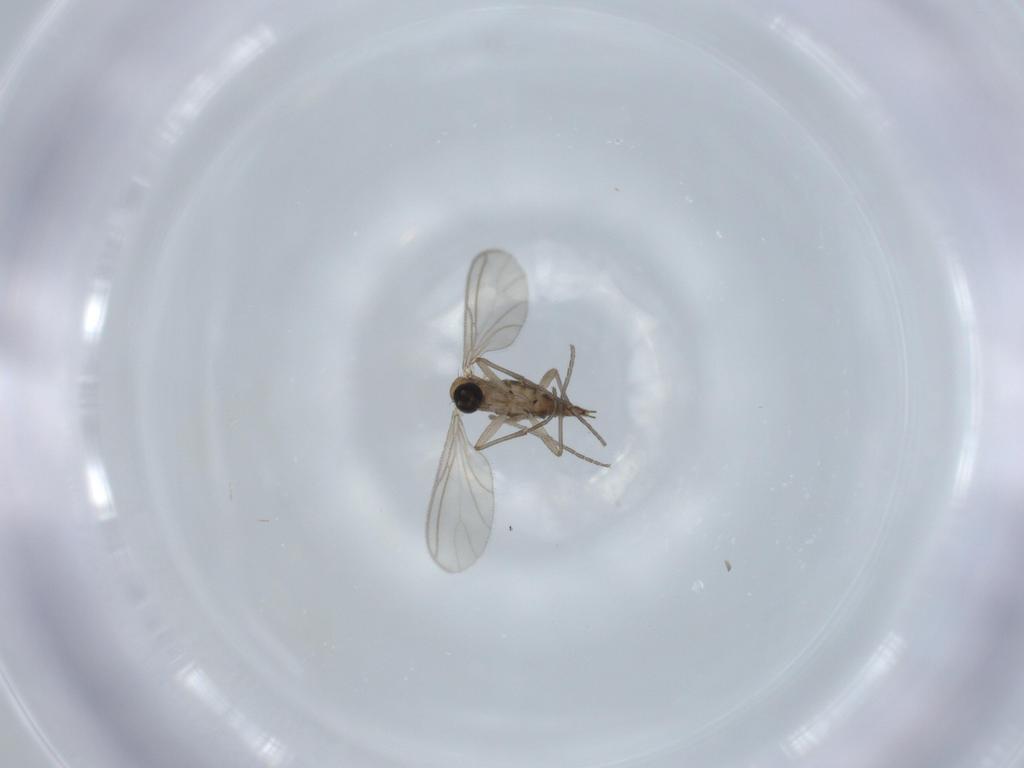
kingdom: Animalia
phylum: Arthropoda
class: Insecta
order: Diptera
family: Sciaridae
